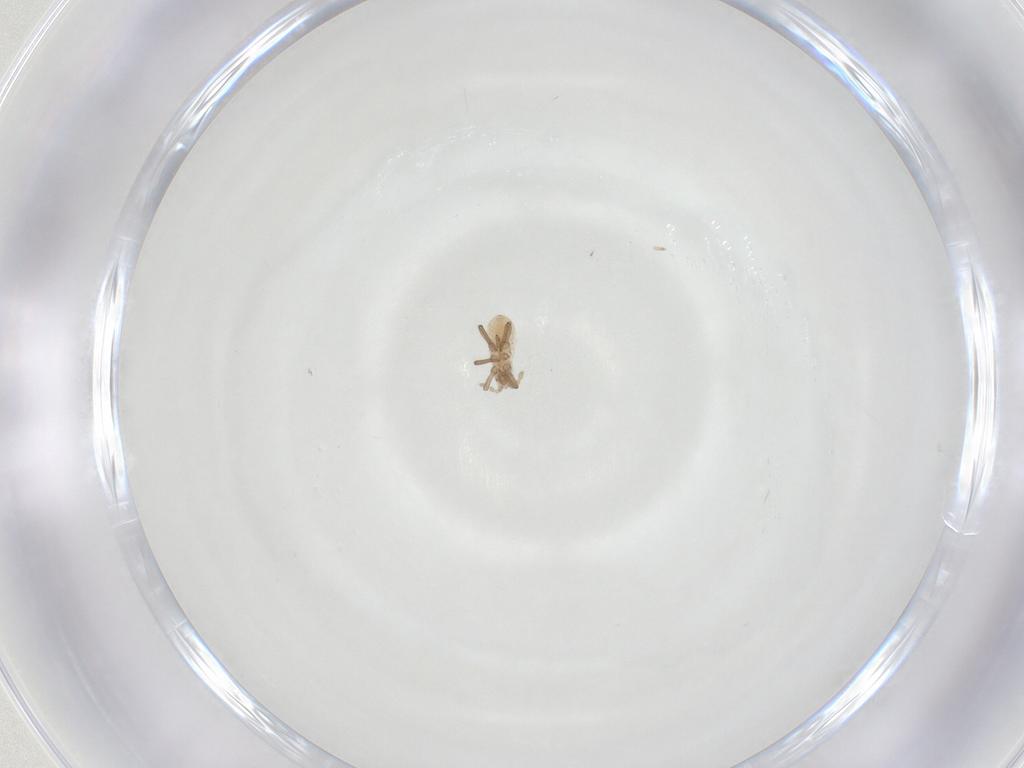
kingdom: Animalia
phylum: Arthropoda
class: Insecta
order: Hemiptera
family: Aphididae
